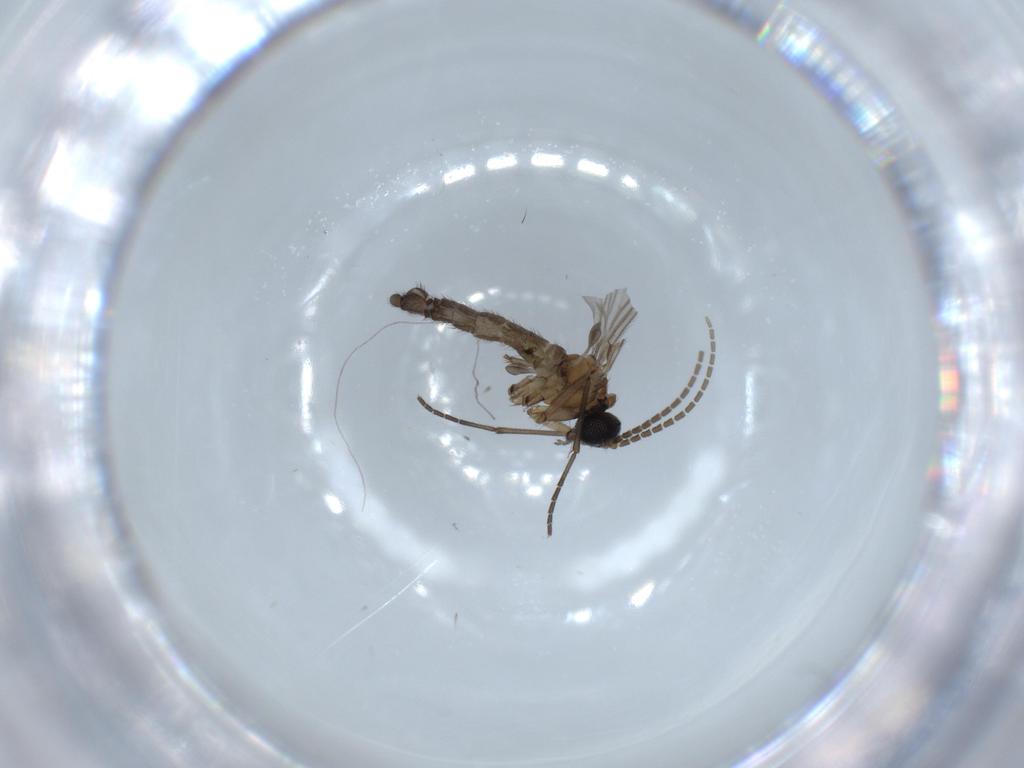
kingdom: Animalia
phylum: Arthropoda
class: Insecta
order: Diptera
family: Sciaridae
